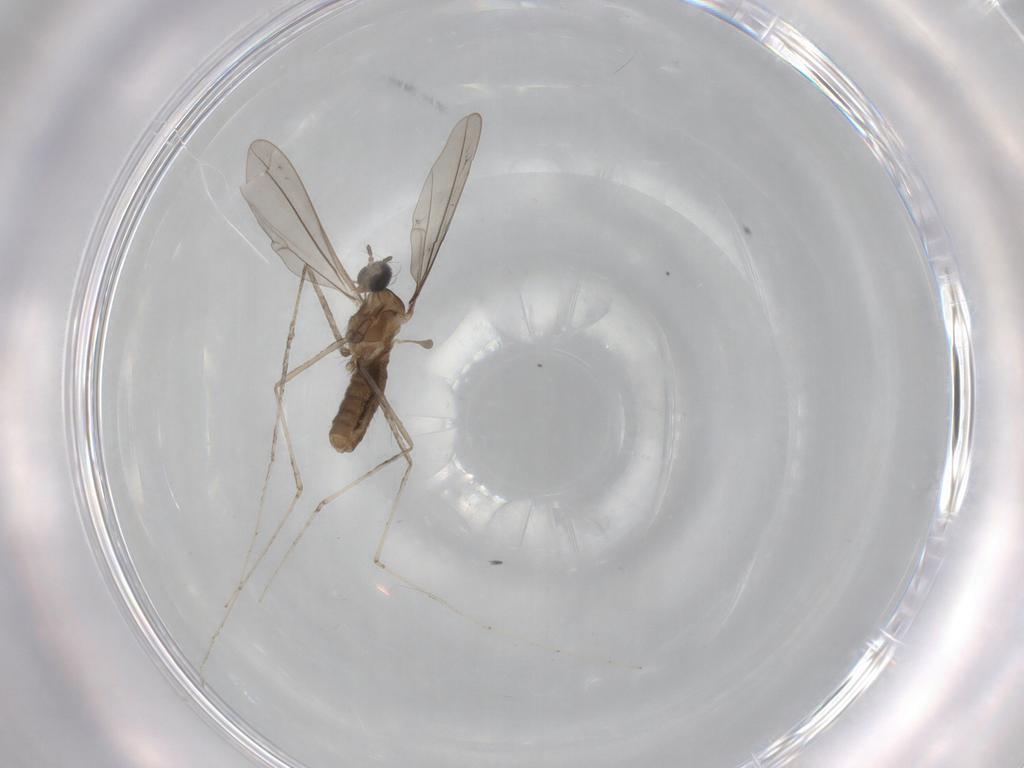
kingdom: Animalia
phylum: Arthropoda
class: Insecta
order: Diptera
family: Cecidomyiidae
